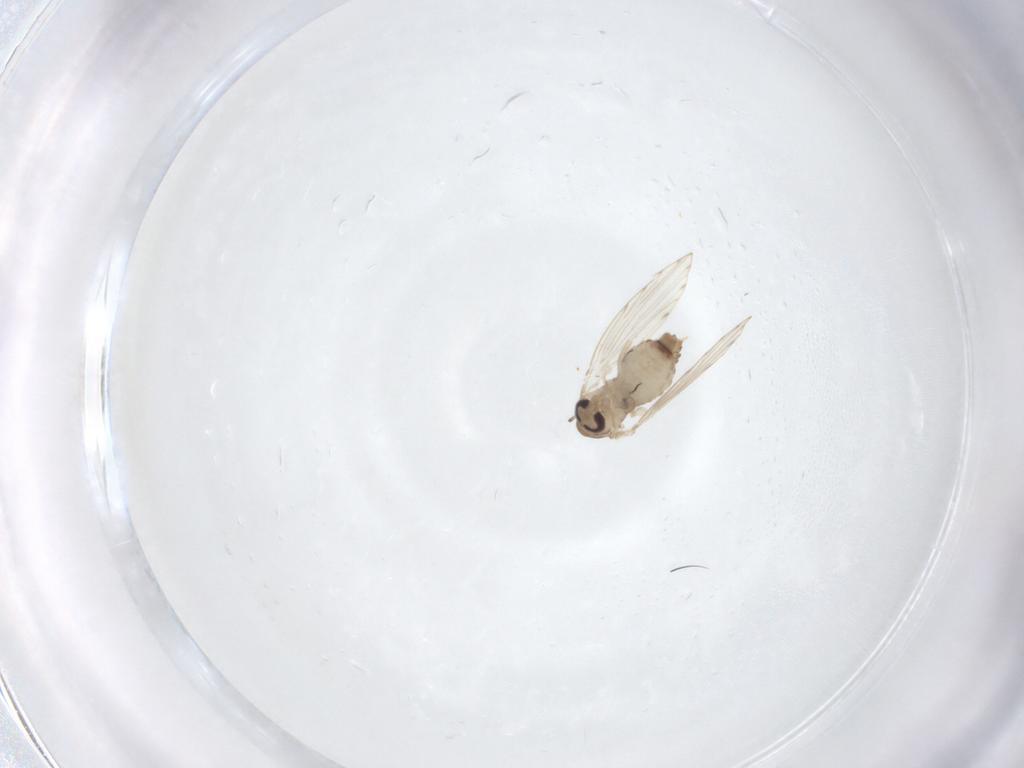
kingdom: Animalia
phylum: Arthropoda
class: Insecta
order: Diptera
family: Psychodidae
